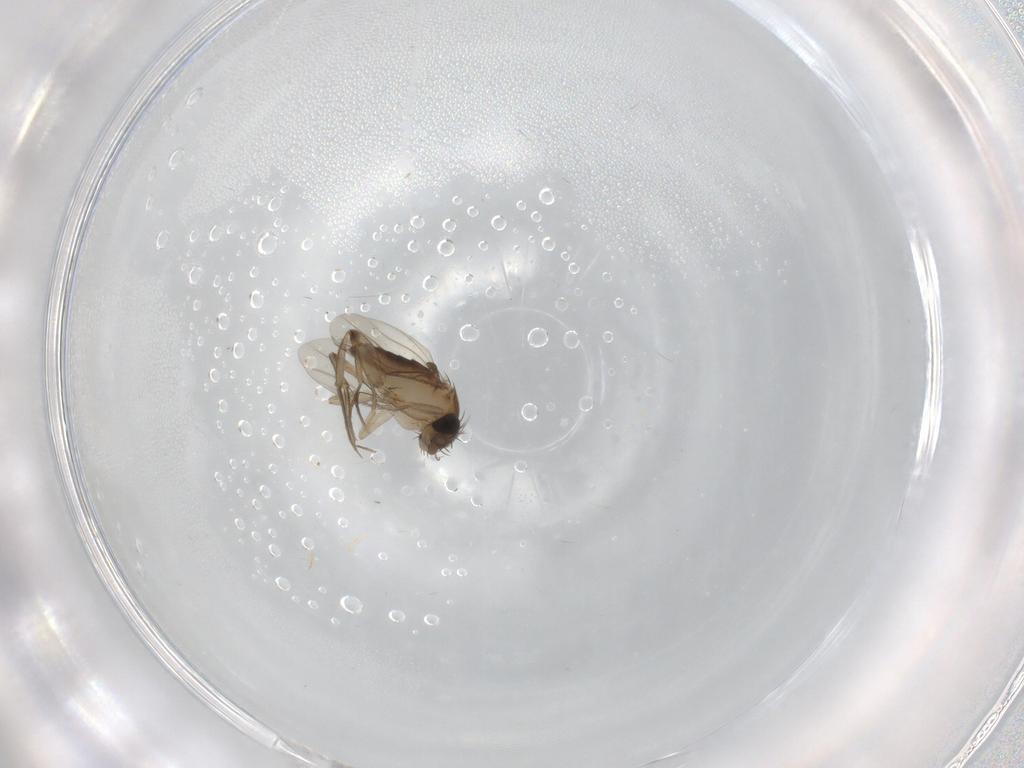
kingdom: Animalia
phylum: Arthropoda
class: Insecta
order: Diptera
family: Phoridae
